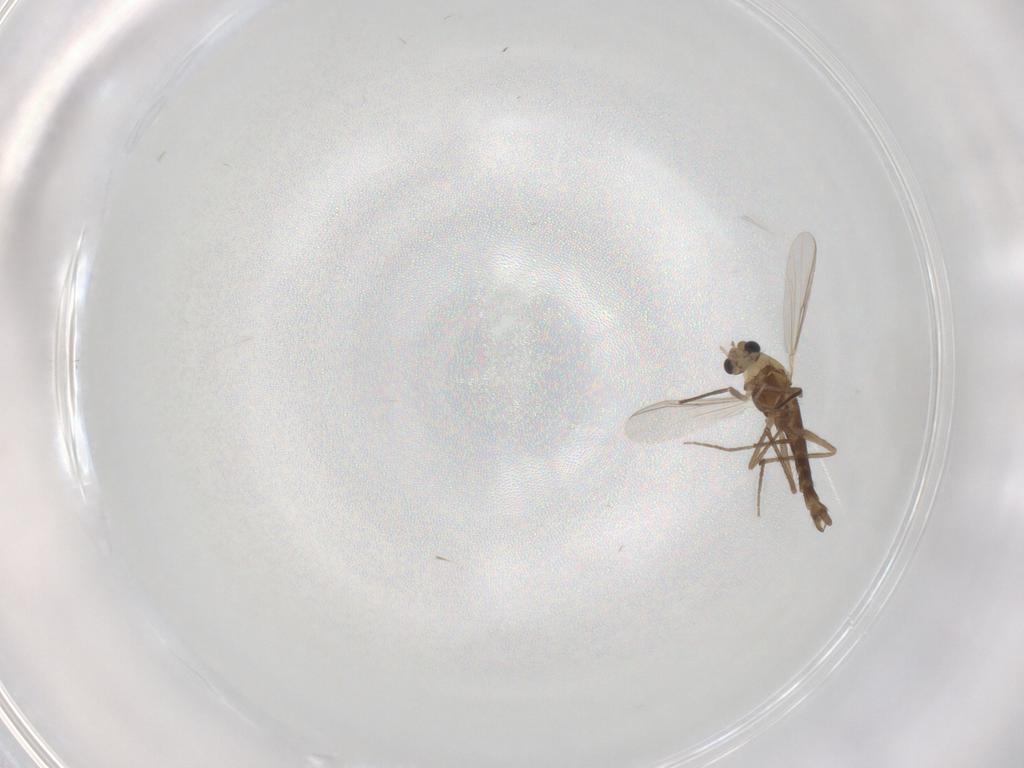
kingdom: Animalia
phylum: Arthropoda
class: Insecta
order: Diptera
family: Chironomidae
